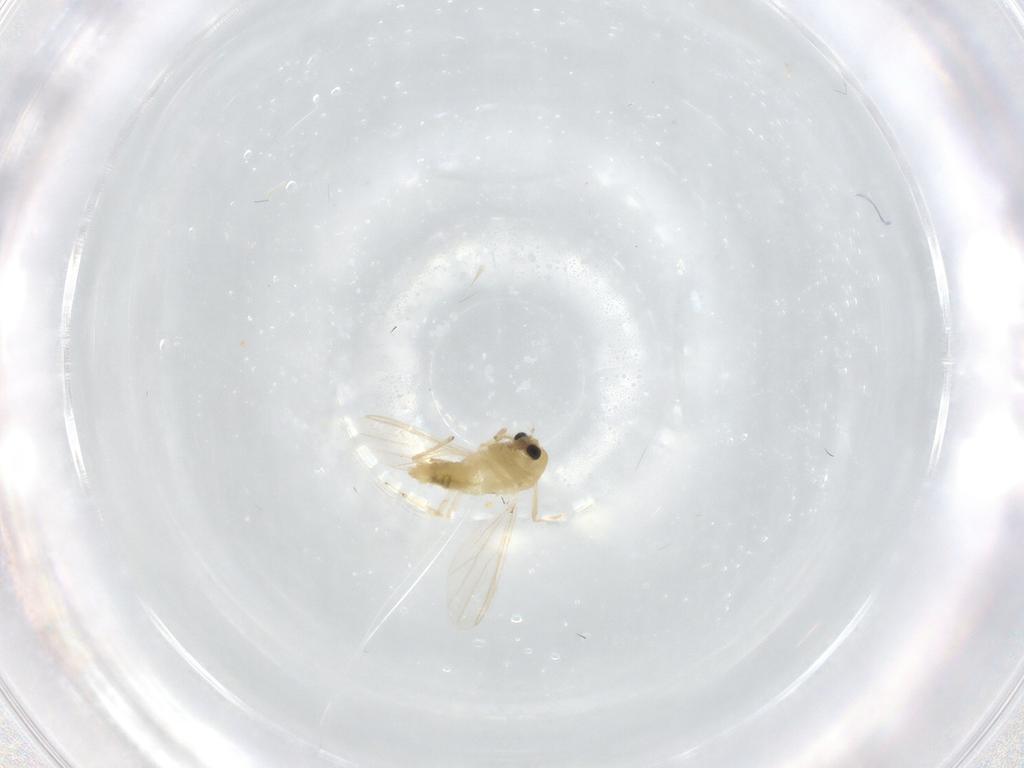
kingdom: Animalia
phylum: Arthropoda
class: Insecta
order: Diptera
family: Chironomidae
